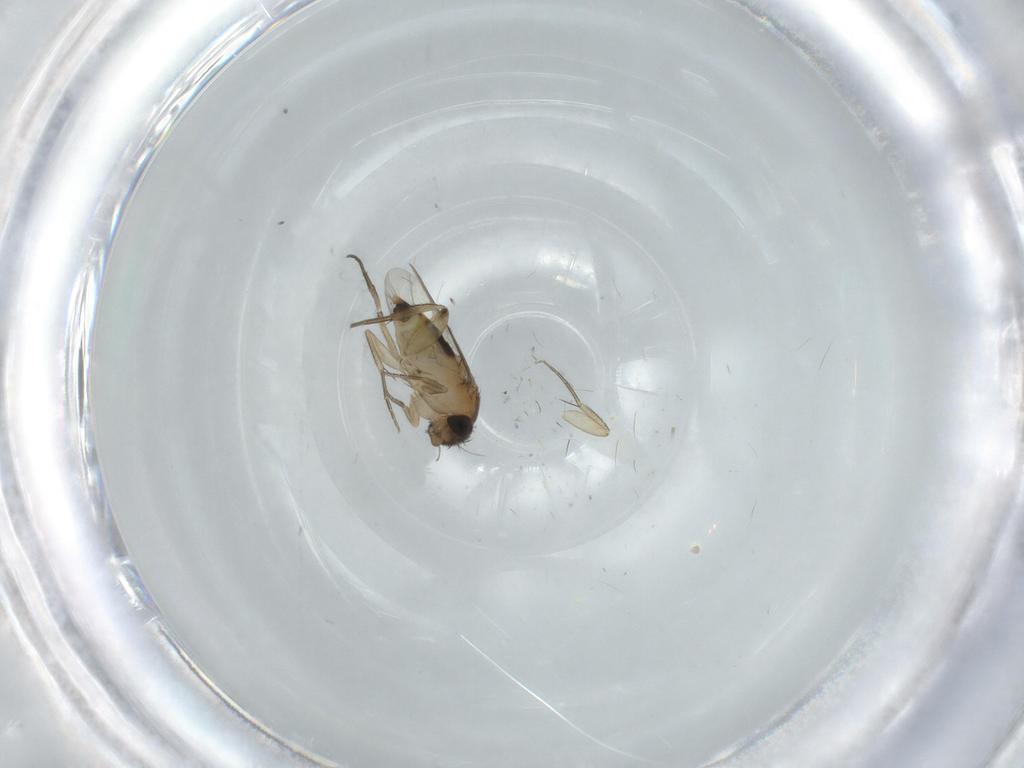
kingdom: Animalia
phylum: Arthropoda
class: Insecta
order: Diptera
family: Phoridae
